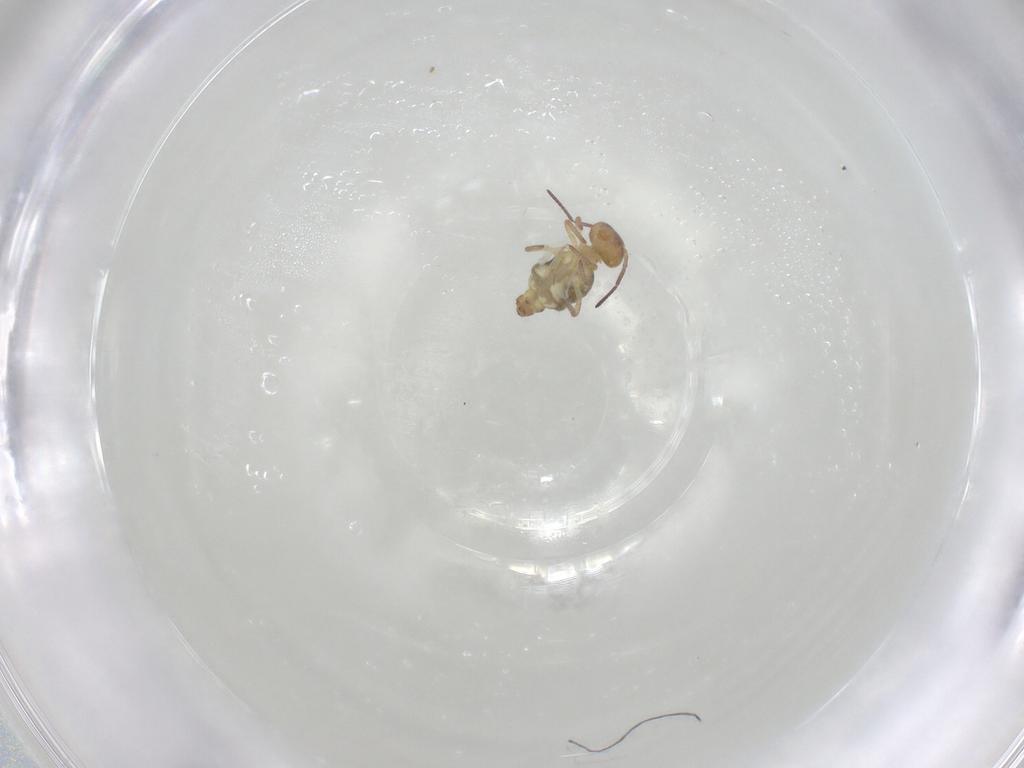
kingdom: Animalia
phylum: Arthropoda
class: Collembola
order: Symphypleona
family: Bourletiellidae
